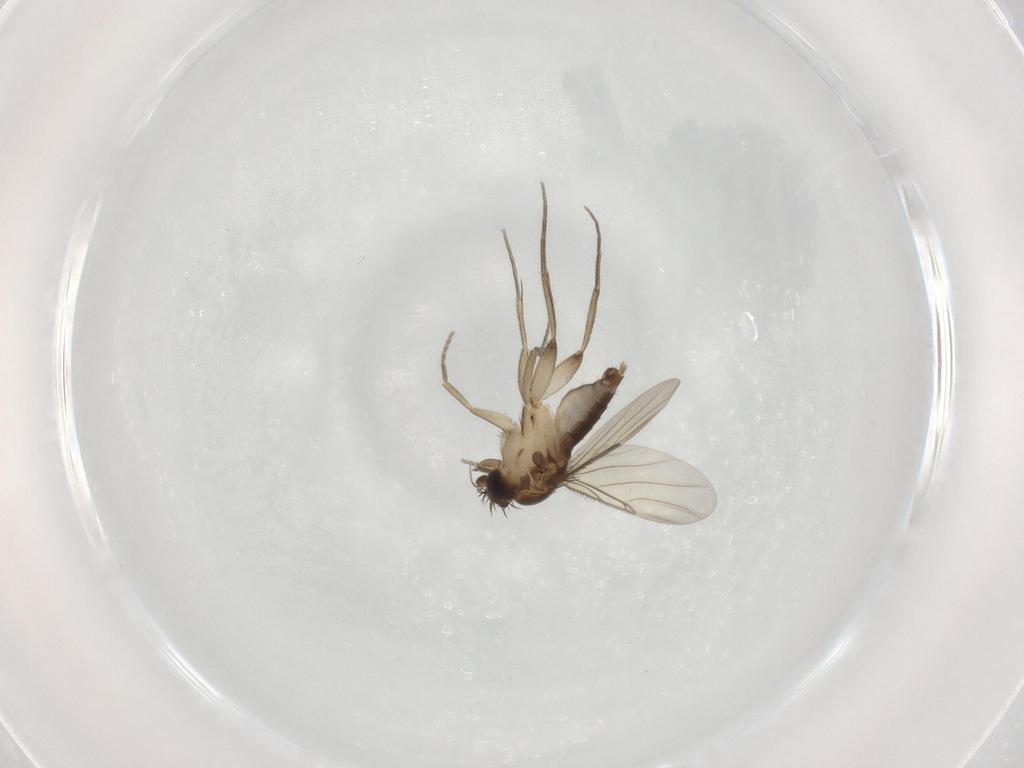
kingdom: Animalia
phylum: Arthropoda
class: Insecta
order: Diptera
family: Phoridae
